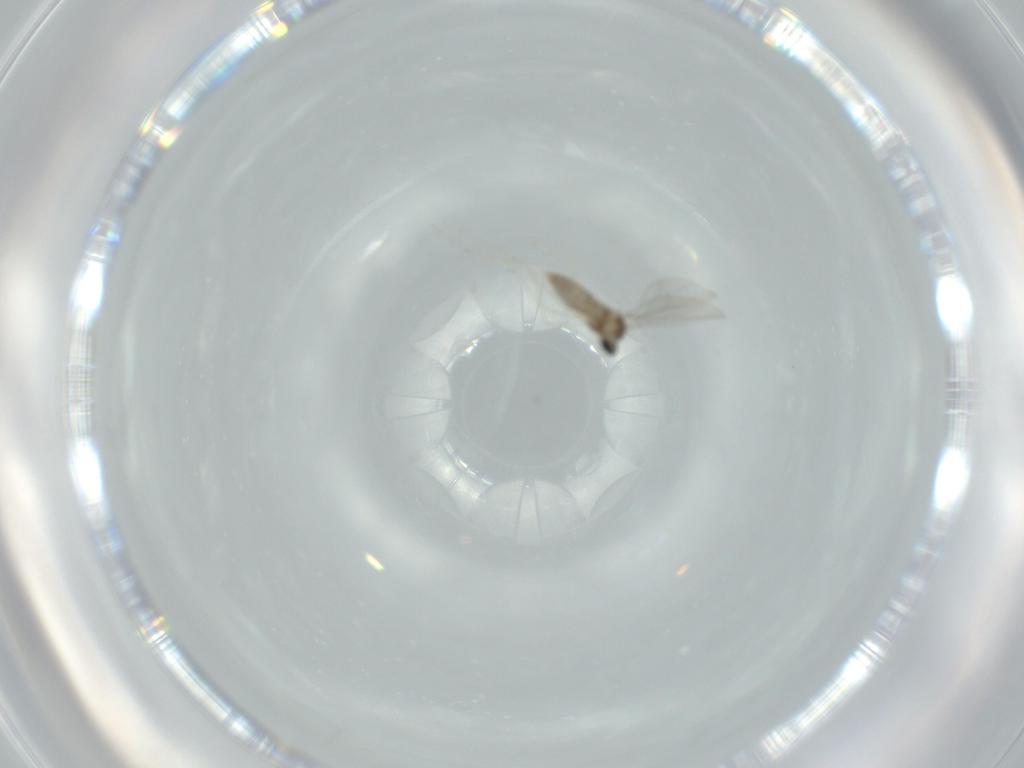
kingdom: Animalia
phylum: Arthropoda
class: Insecta
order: Diptera
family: Cecidomyiidae
